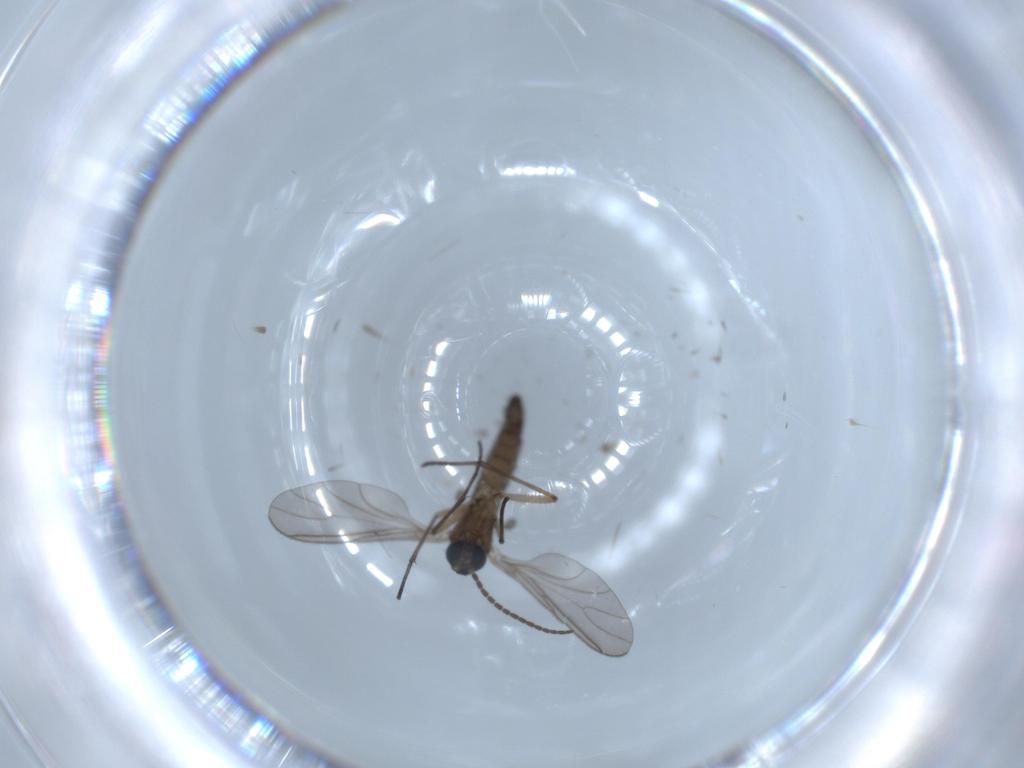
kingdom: Animalia
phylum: Arthropoda
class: Insecta
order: Diptera
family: Sciaridae
